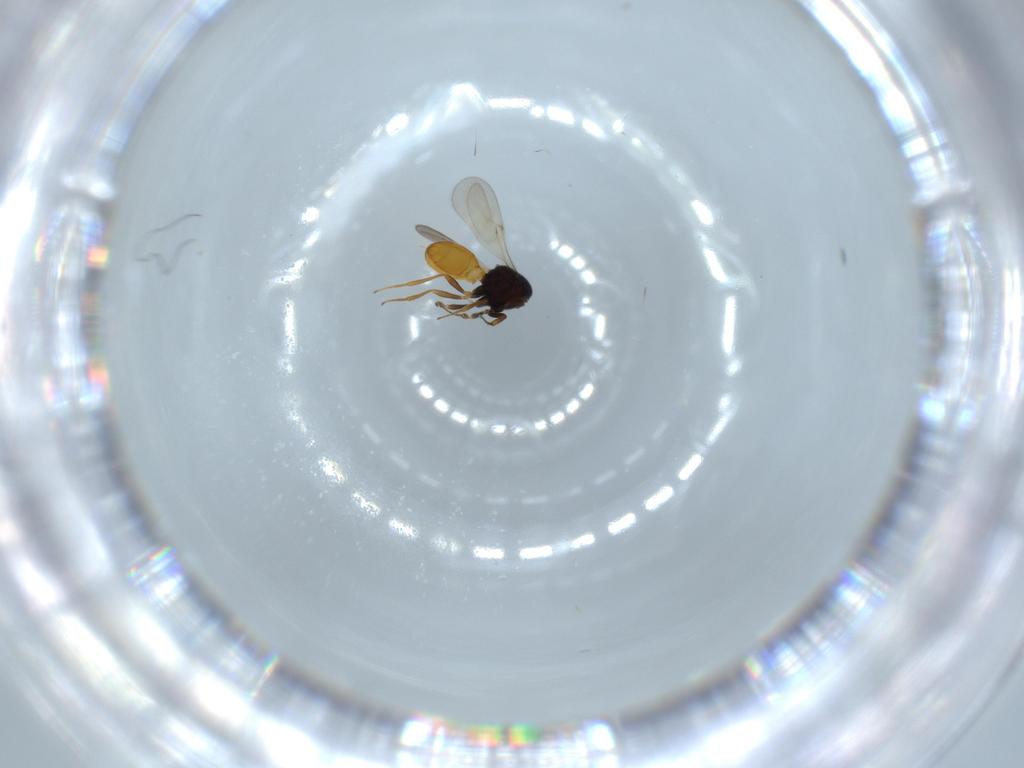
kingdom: Animalia
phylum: Arthropoda
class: Insecta
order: Hymenoptera
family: Scelionidae
